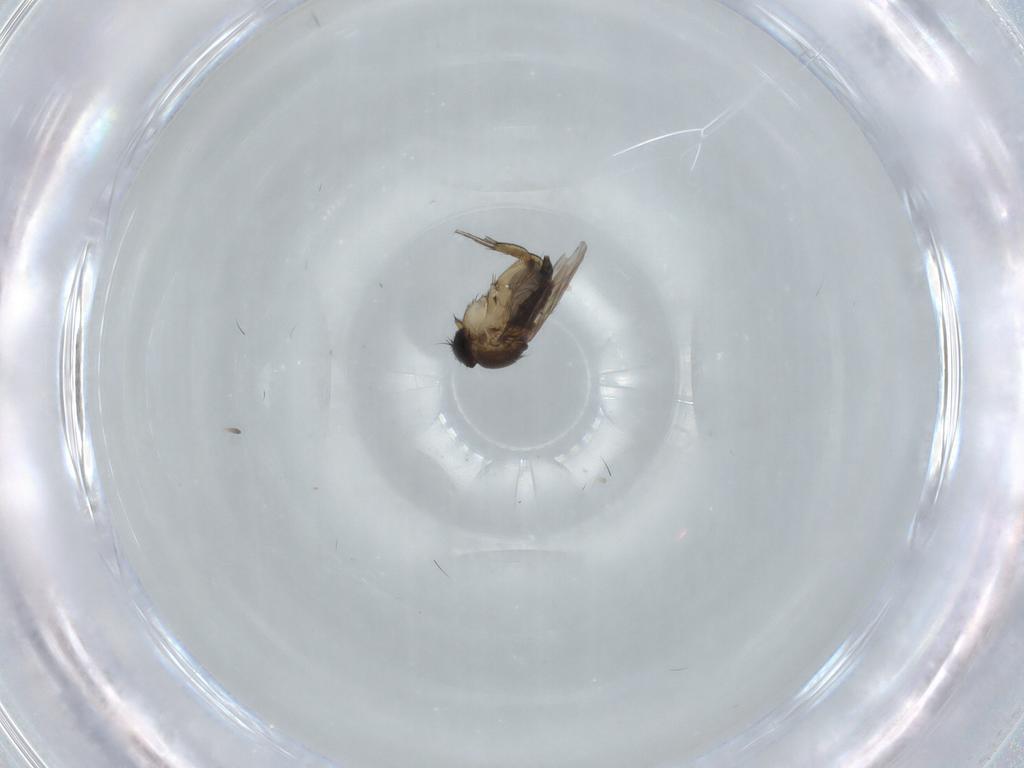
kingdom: Animalia
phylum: Arthropoda
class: Insecta
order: Diptera
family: Phoridae
